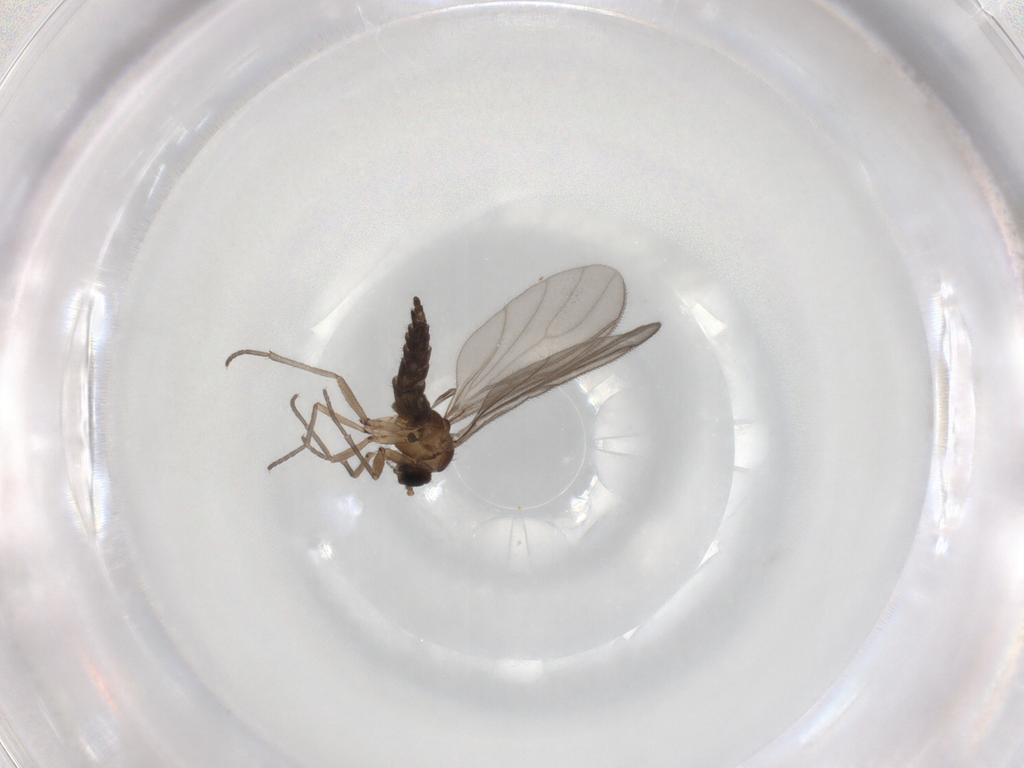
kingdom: Animalia
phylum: Arthropoda
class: Insecta
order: Diptera
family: Sciaridae
